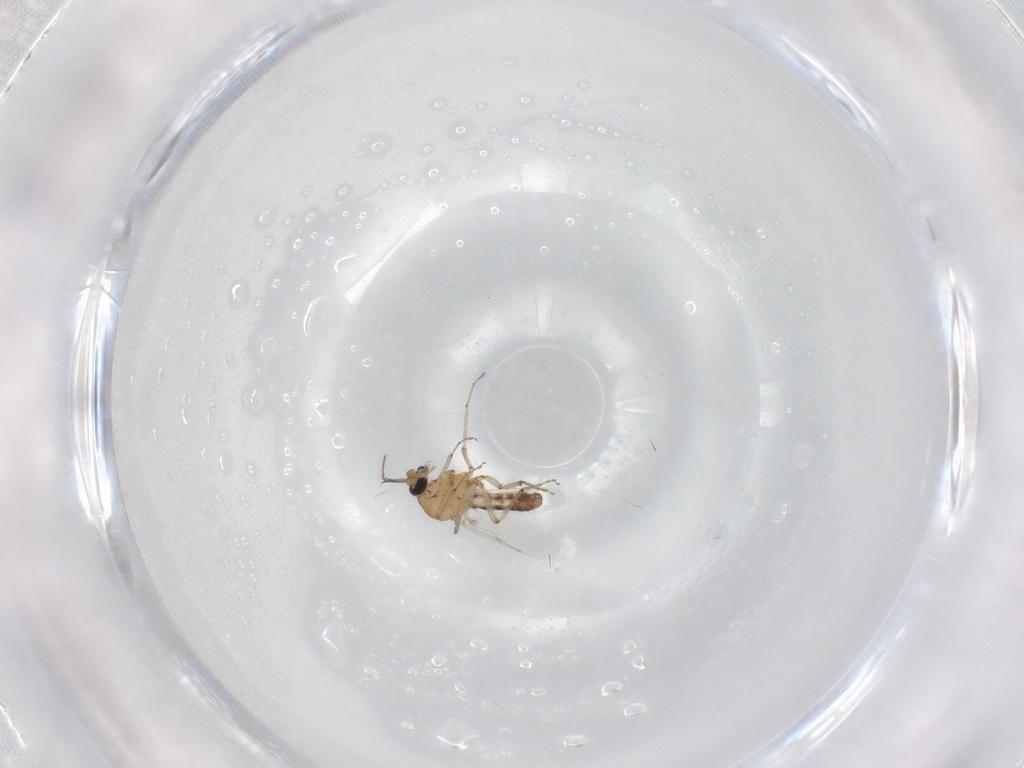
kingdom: Animalia
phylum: Arthropoda
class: Insecta
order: Diptera
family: Ceratopogonidae
